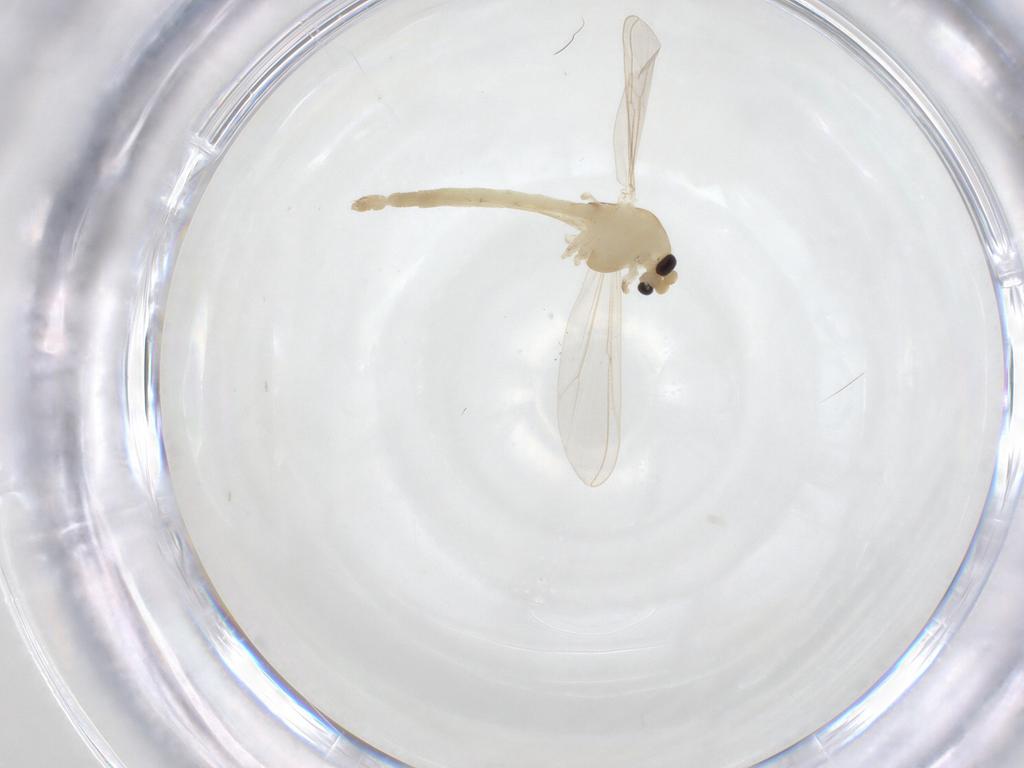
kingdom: Animalia
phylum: Arthropoda
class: Insecta
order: Diptera
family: Chironomidae
